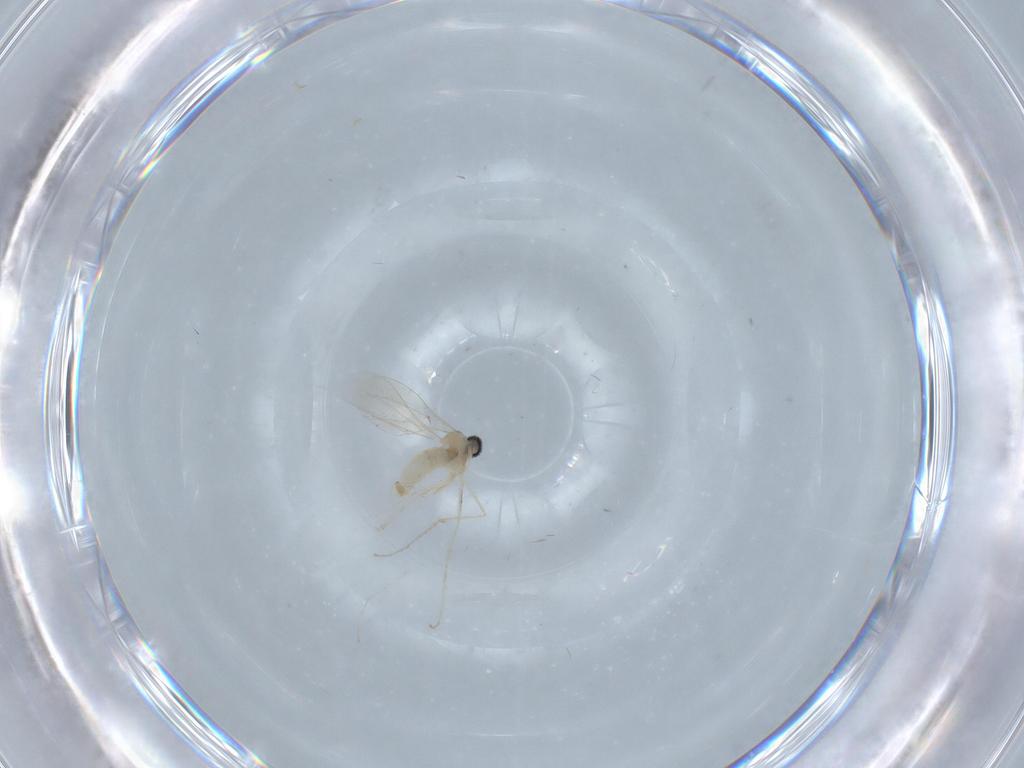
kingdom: Animalia
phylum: Arthropoda
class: Insecta
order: Diptera
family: Cecidomyiidae
